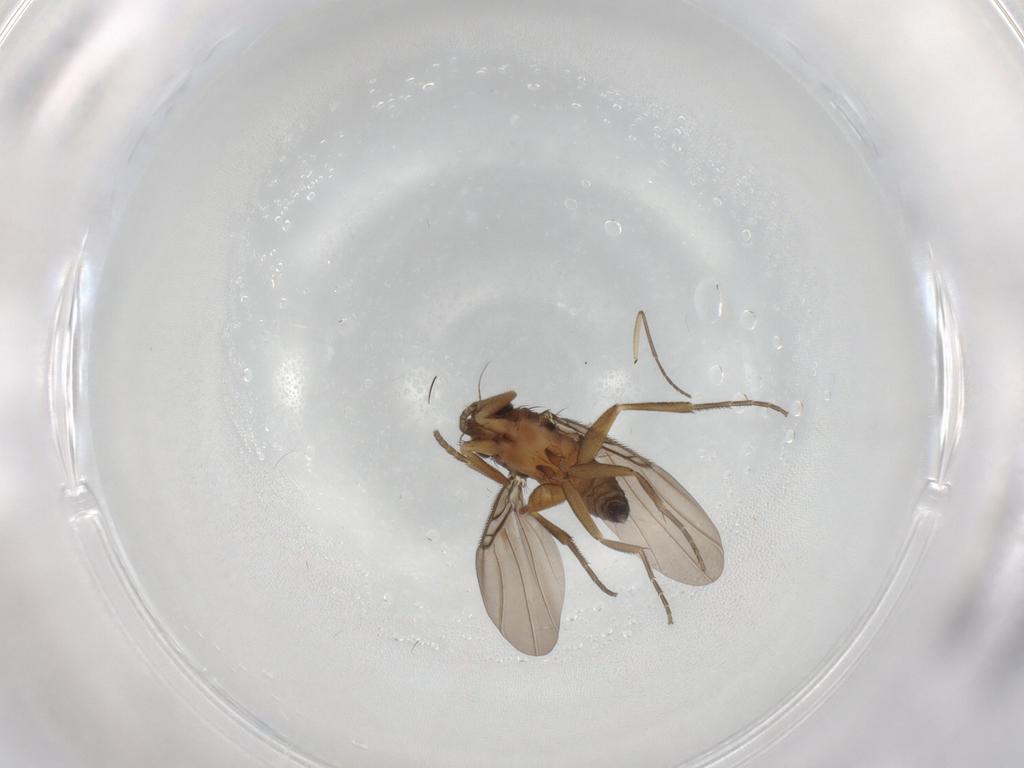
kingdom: Animalia
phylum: Arthropoda
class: Insecta
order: Diptera
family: Phoridae
